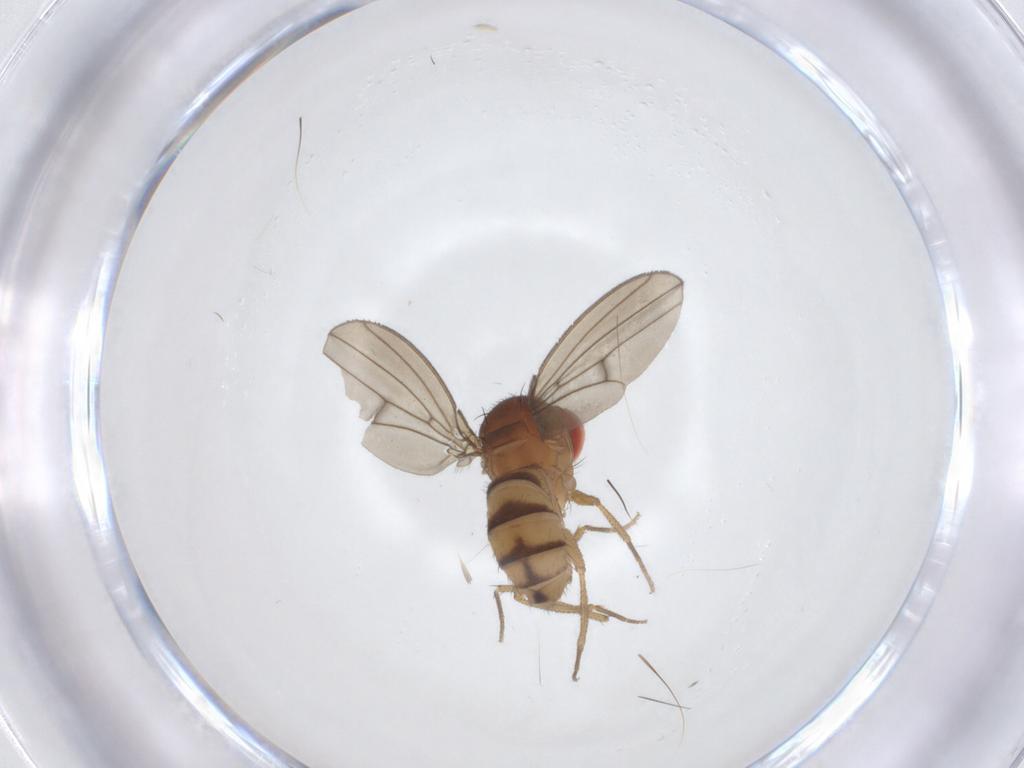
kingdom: Animalia
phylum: Arthropoda
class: Insecta
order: Diptera
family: Drosophilidae
